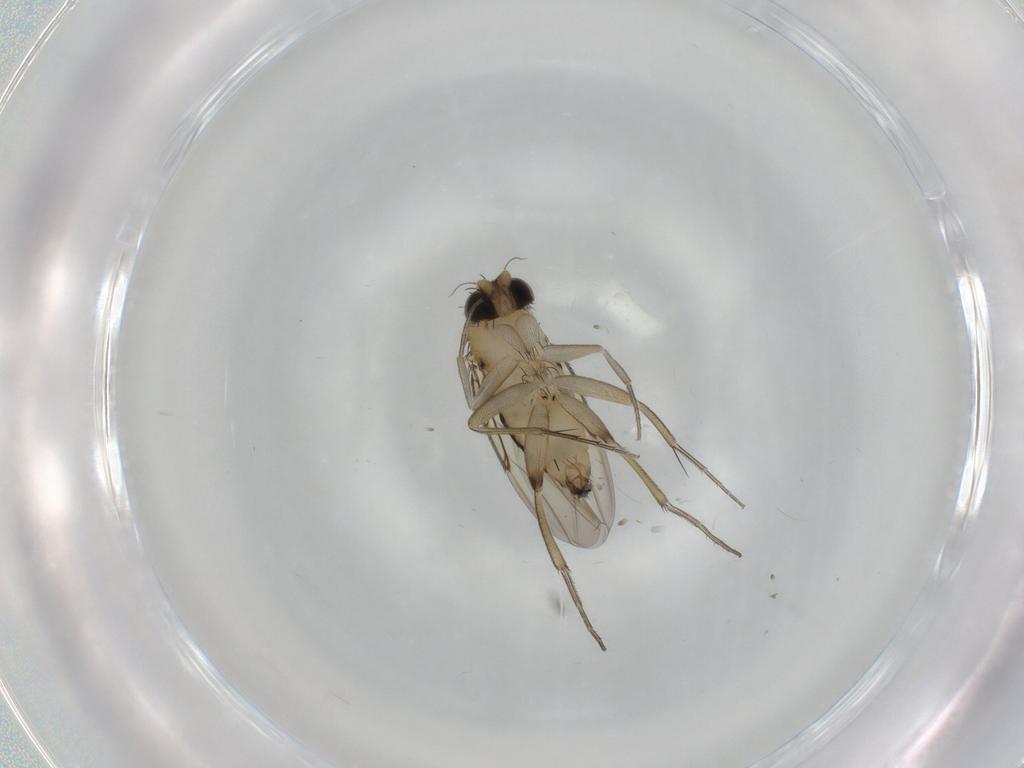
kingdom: Animalia
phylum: Arthropoda
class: Insecta
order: Diptera
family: Phoridae
